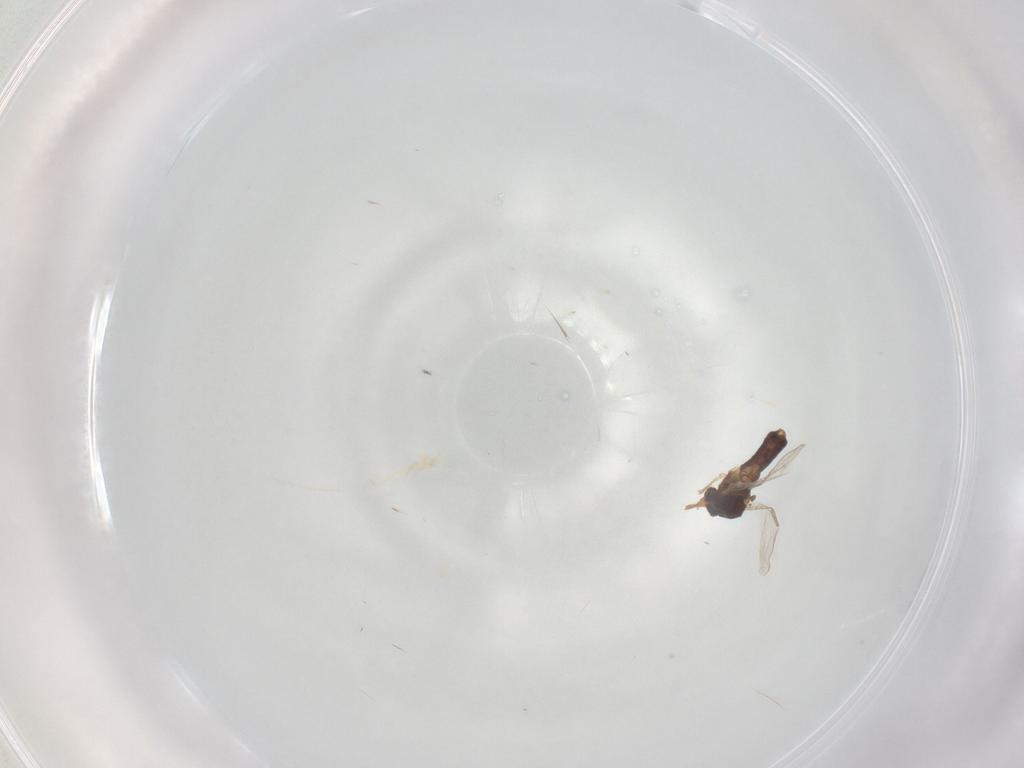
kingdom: Animalia
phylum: Arthropoda
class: Insecta
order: Diptera
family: Ceratopogonidae
